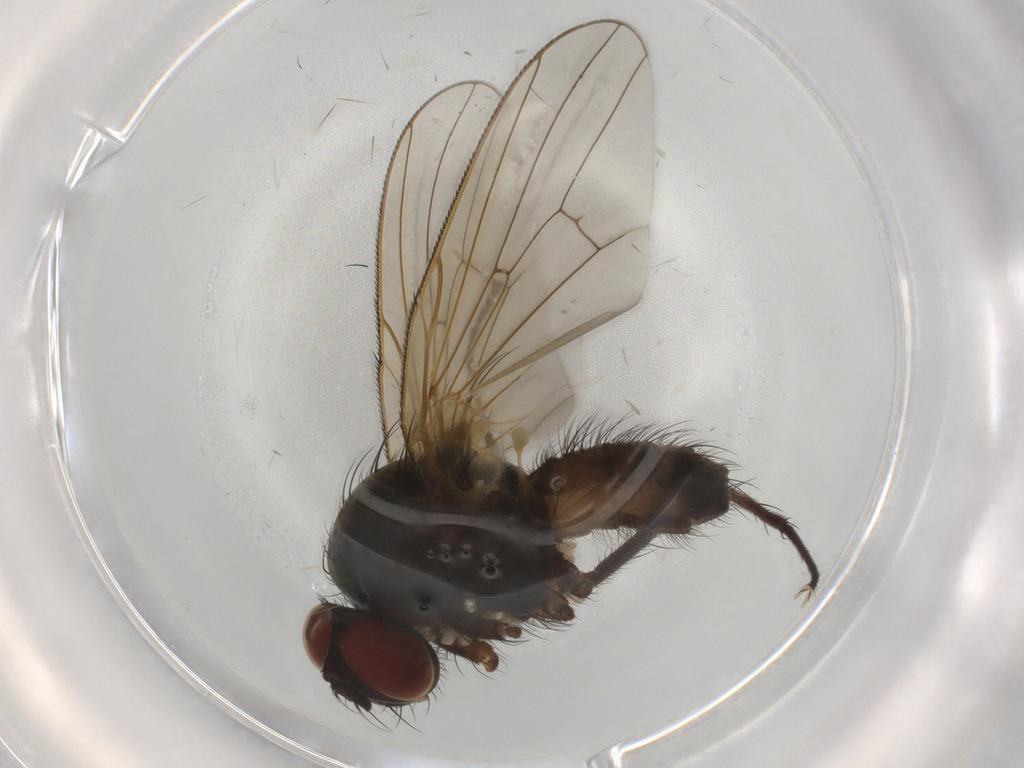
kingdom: Animalia
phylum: Arthropoda
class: Insecta
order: Diptera
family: Anthomyiidae
